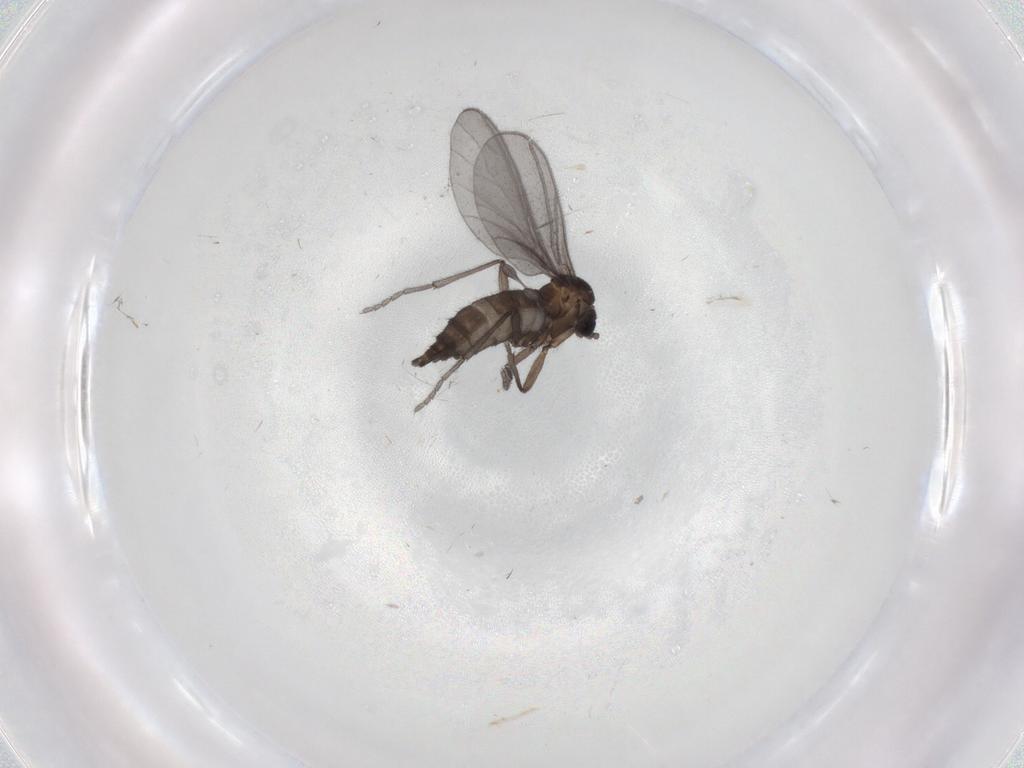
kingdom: Animalia
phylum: Arthropoda
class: Insecta
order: Diptera
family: Sciaridae
